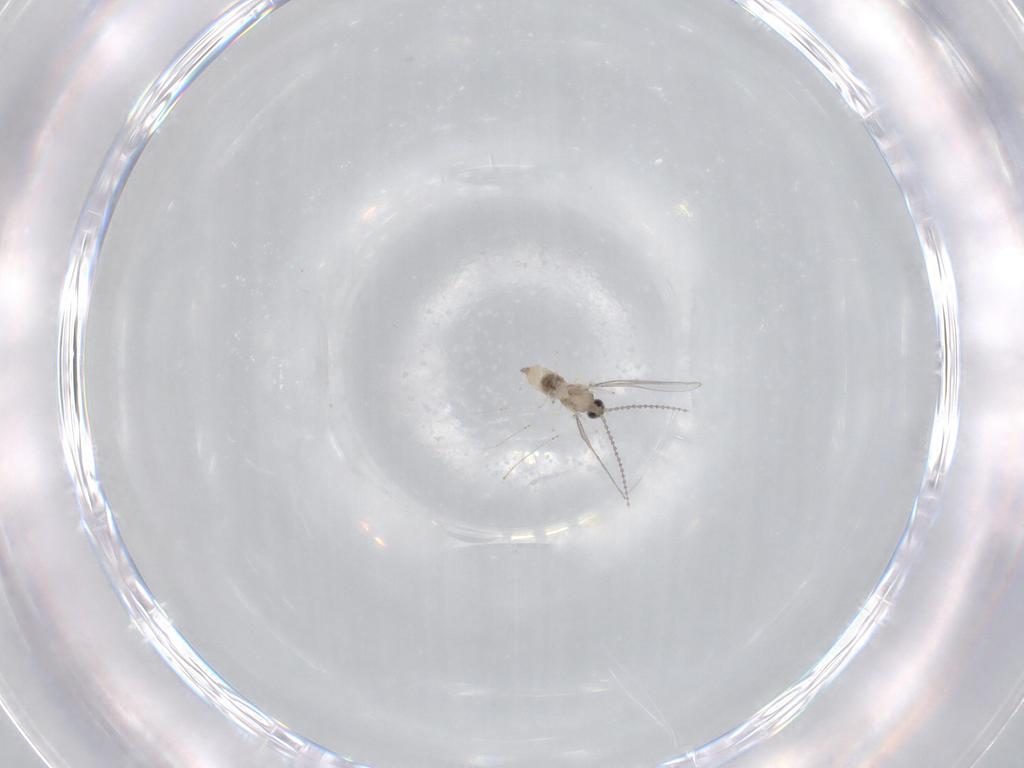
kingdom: Animalia
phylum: Arthropoda
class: Insecta
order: Diptera
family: Cecidomyiidae
